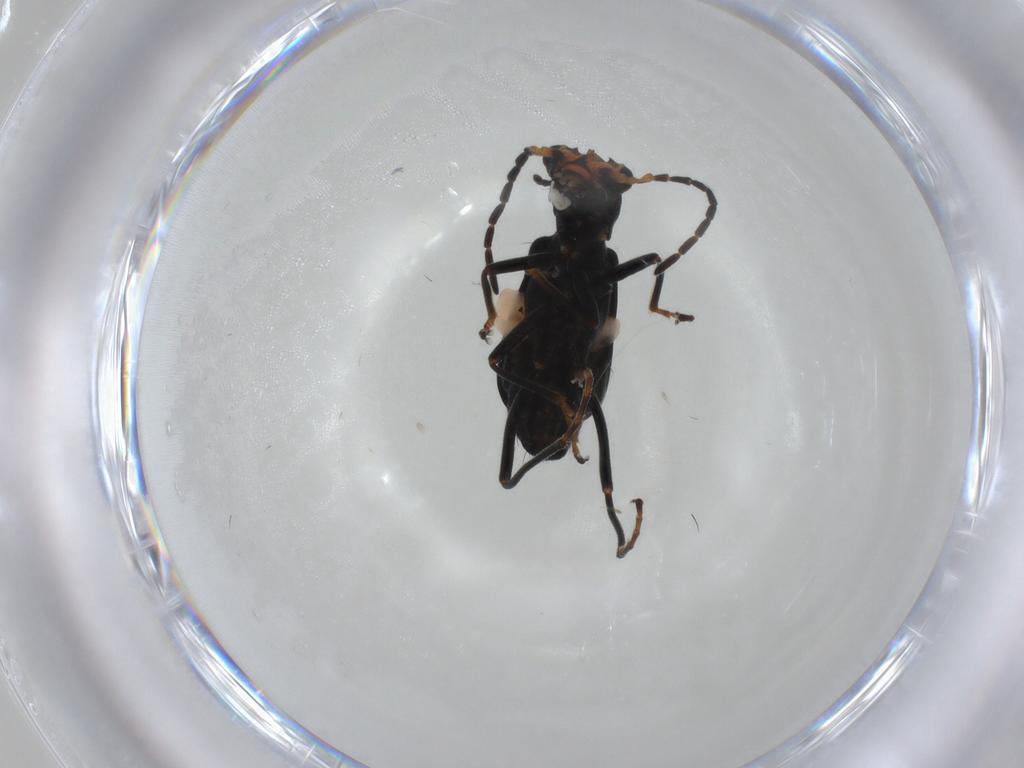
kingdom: Animalia
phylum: Arthropoda
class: Insecta
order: Coleoptera
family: Melyridae
